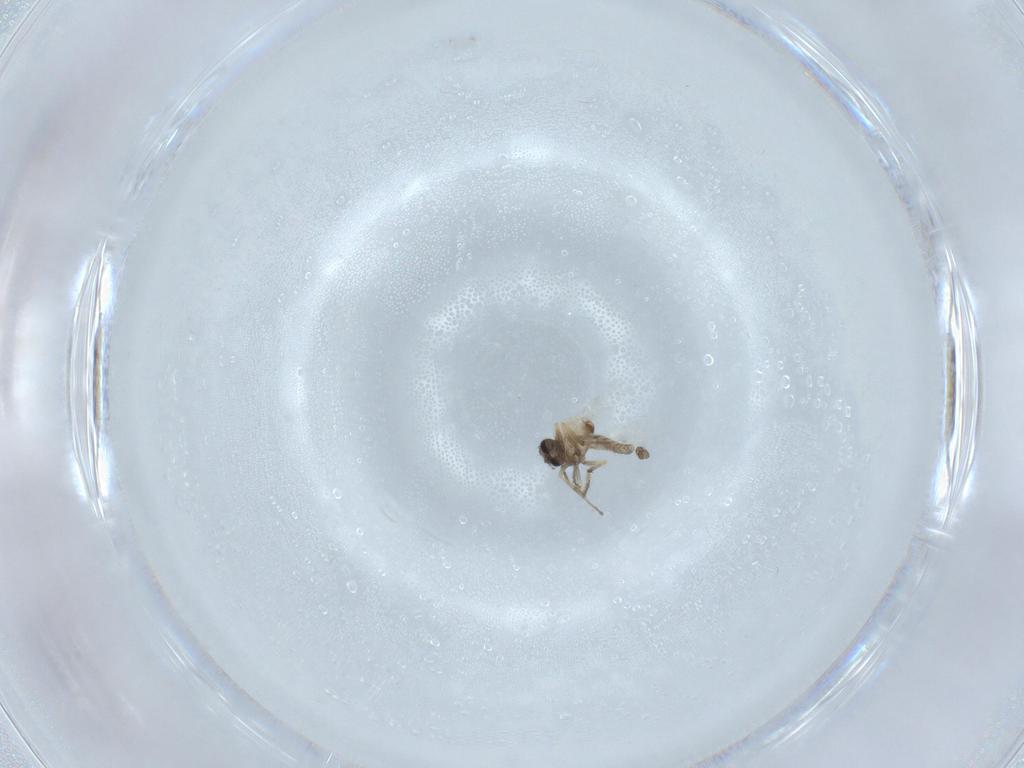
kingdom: Animalia
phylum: Arthropoda
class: Insecta
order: Diptera
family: Ceratopogonidae
